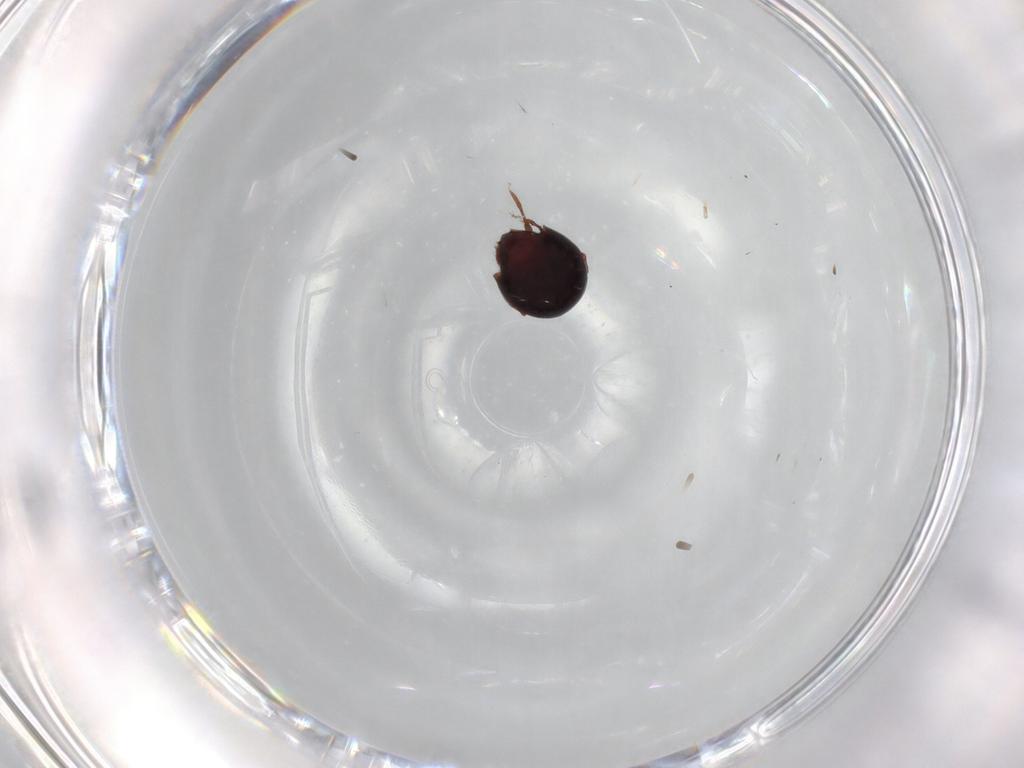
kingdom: Animalia
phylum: Arthropoda
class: Arachnida
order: Sarcoptiformes
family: Mochlozetidae
